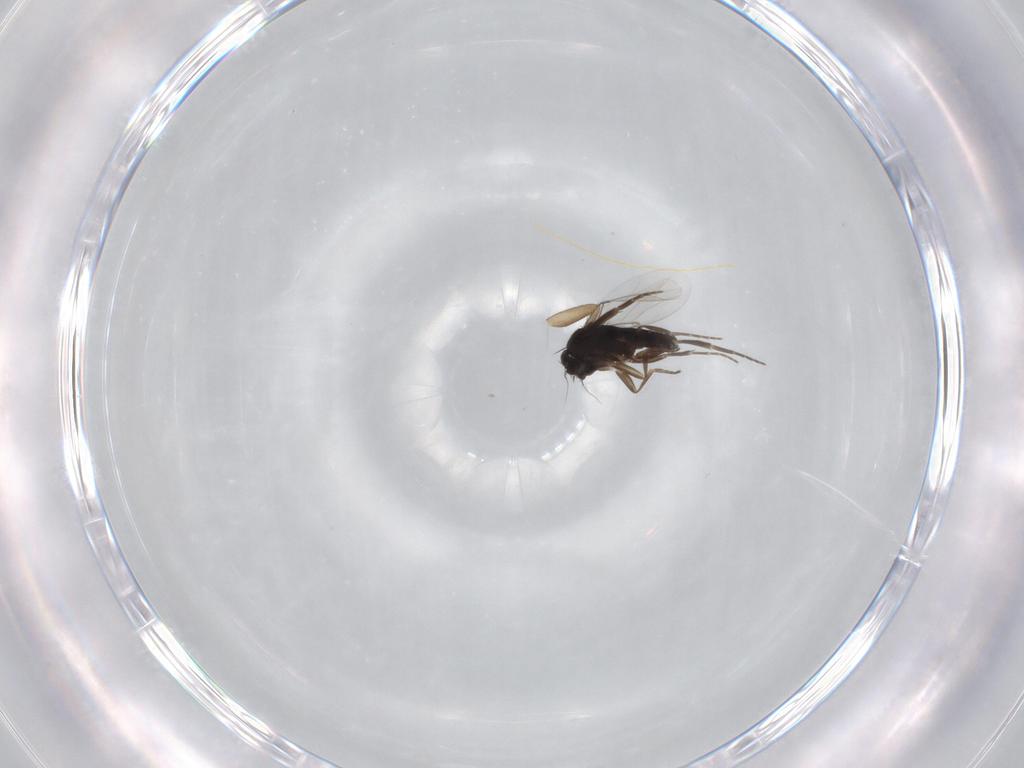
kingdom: Animalia
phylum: Arthropoda
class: Insecta
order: Diptera
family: Phoridae
